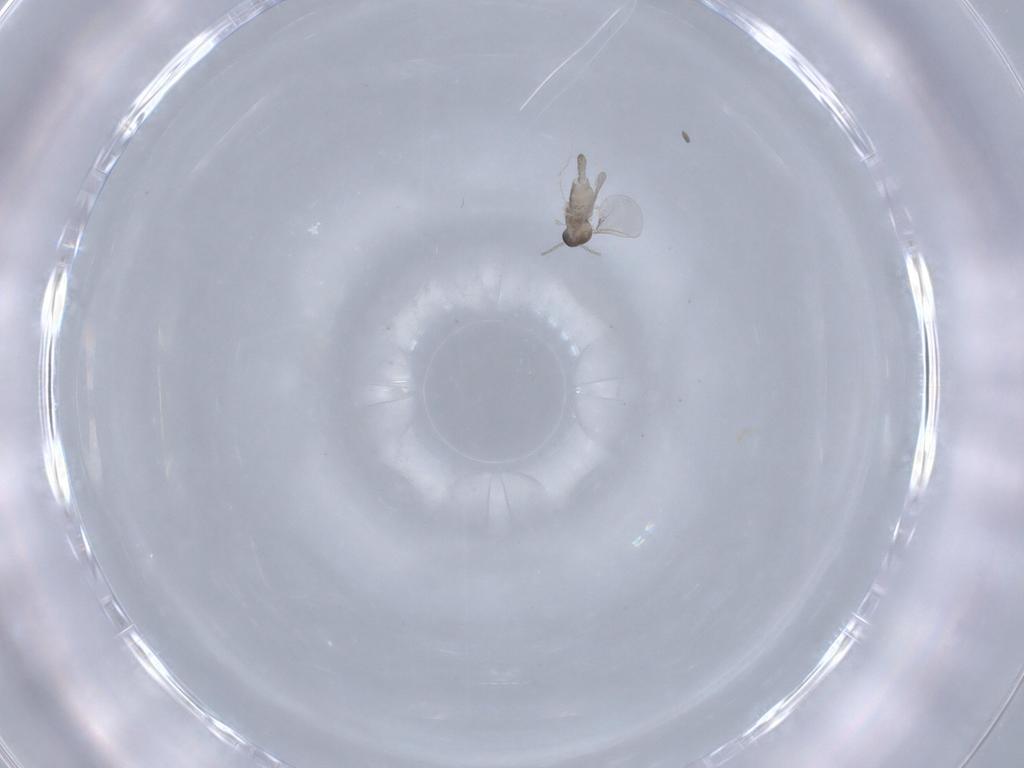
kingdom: Animalia
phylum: Arthropoda
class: Insecta
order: Diptera
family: Cecidomyiidae
